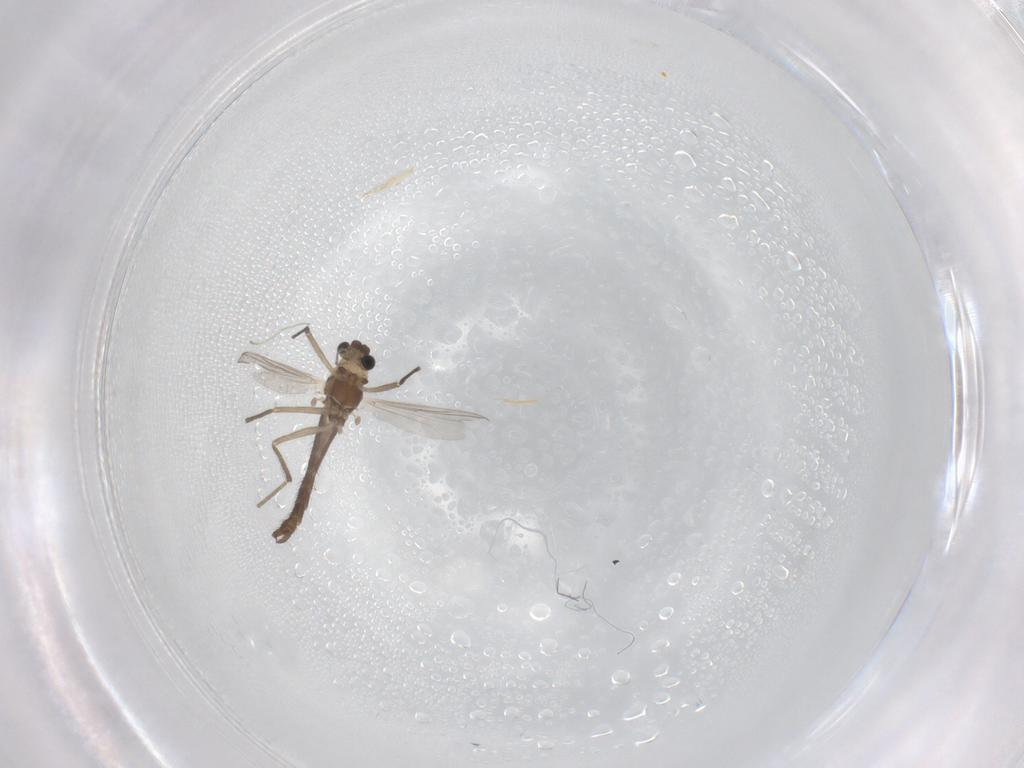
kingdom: Animalia
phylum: Arthropoda
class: Insecta
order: Diptera
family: Chironomidae
